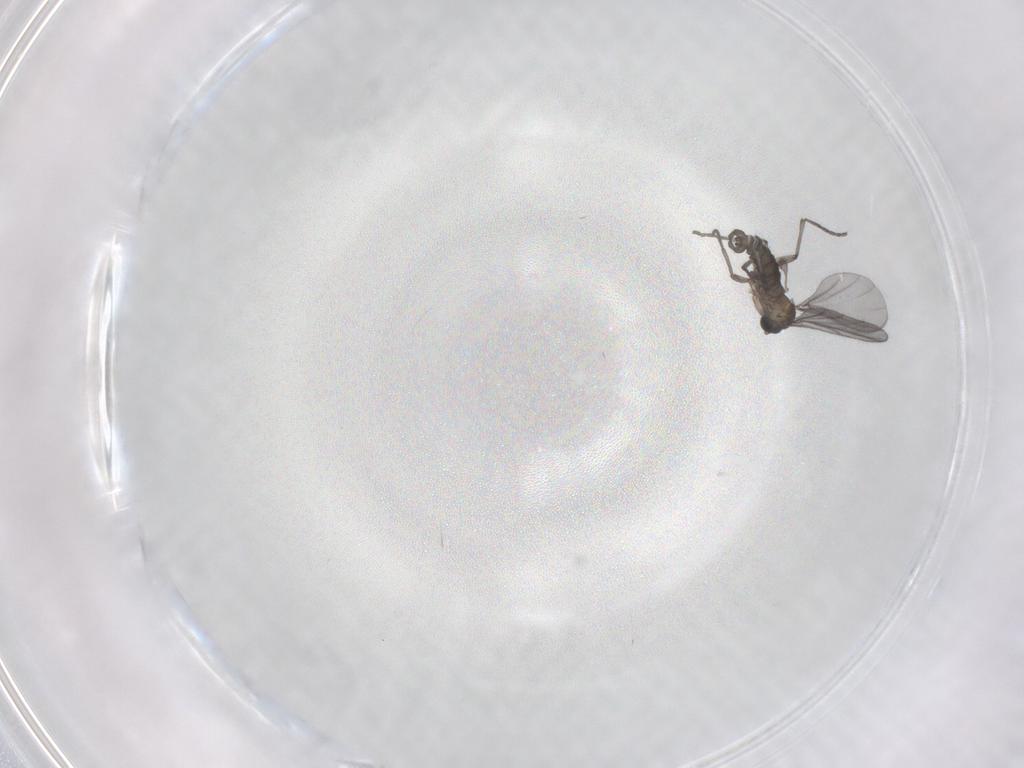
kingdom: Animalia
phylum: Arthropoda
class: Insecta
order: Diptera
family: Sciaridae
